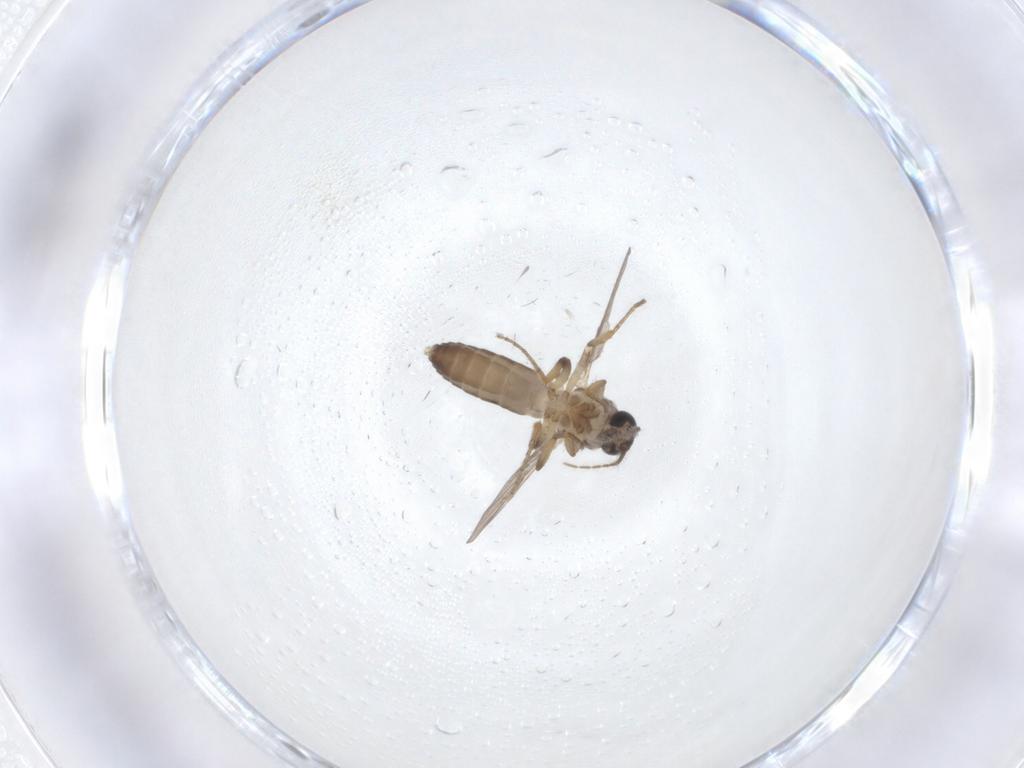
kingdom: Animalia
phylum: Arthropoda
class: Insecta
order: Diptera
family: Ceratopogonidae
